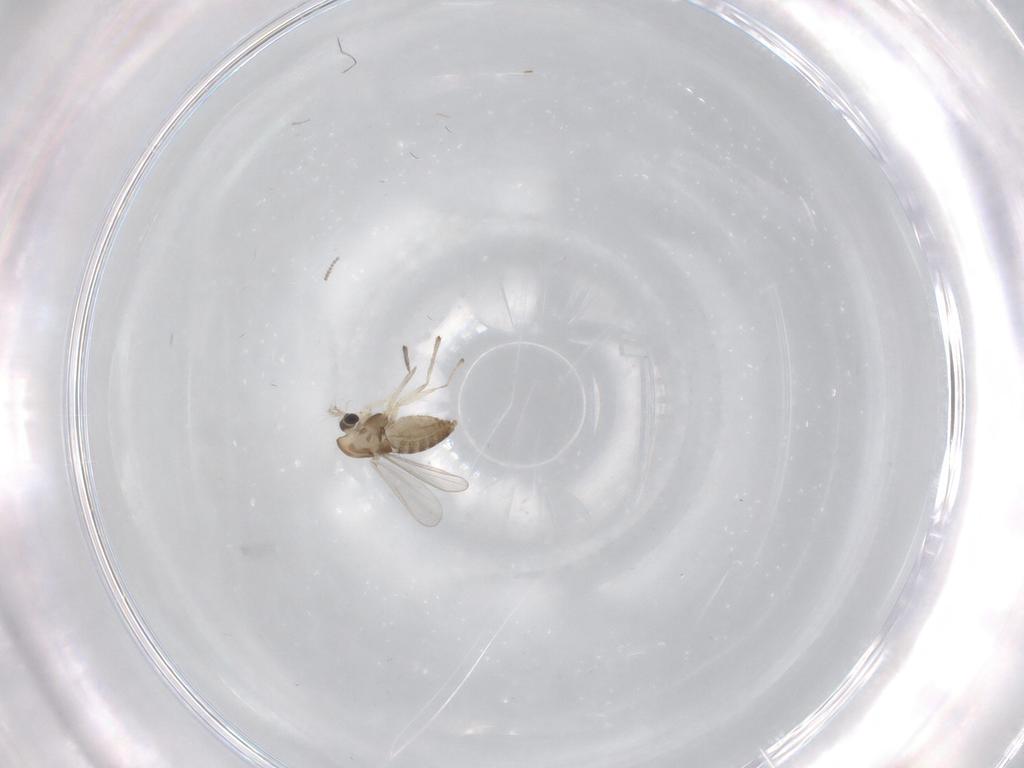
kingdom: Animalia
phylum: Arthropoda
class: Insecta
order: Diptera
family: Chironomidae
